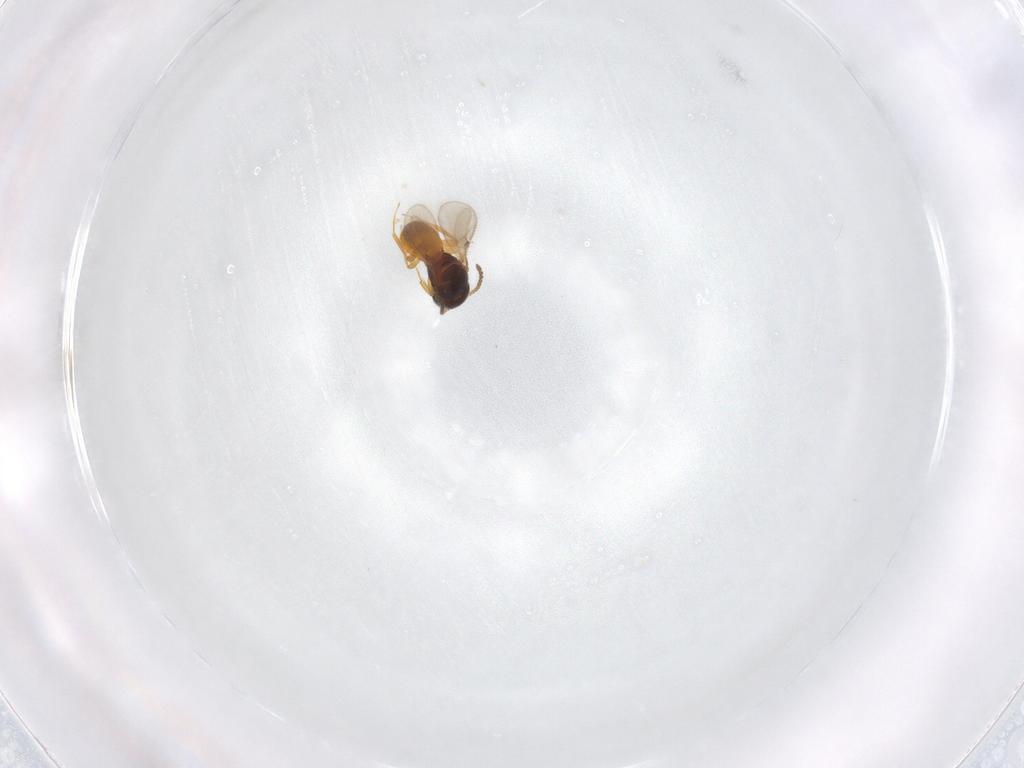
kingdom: Animalia
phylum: Arthropoda
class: Insecta
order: Hymenoptera
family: Scelionidae
